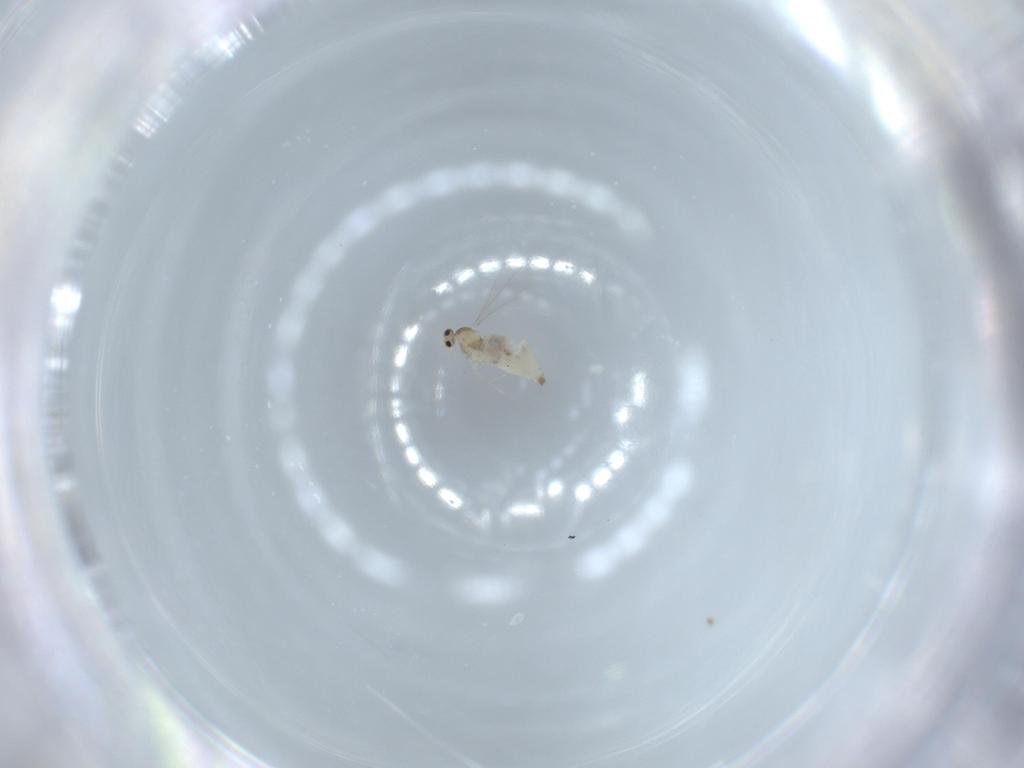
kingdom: Animalia
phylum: Arthropoda
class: Insecta
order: Diptera
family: Cecidomyiidae
